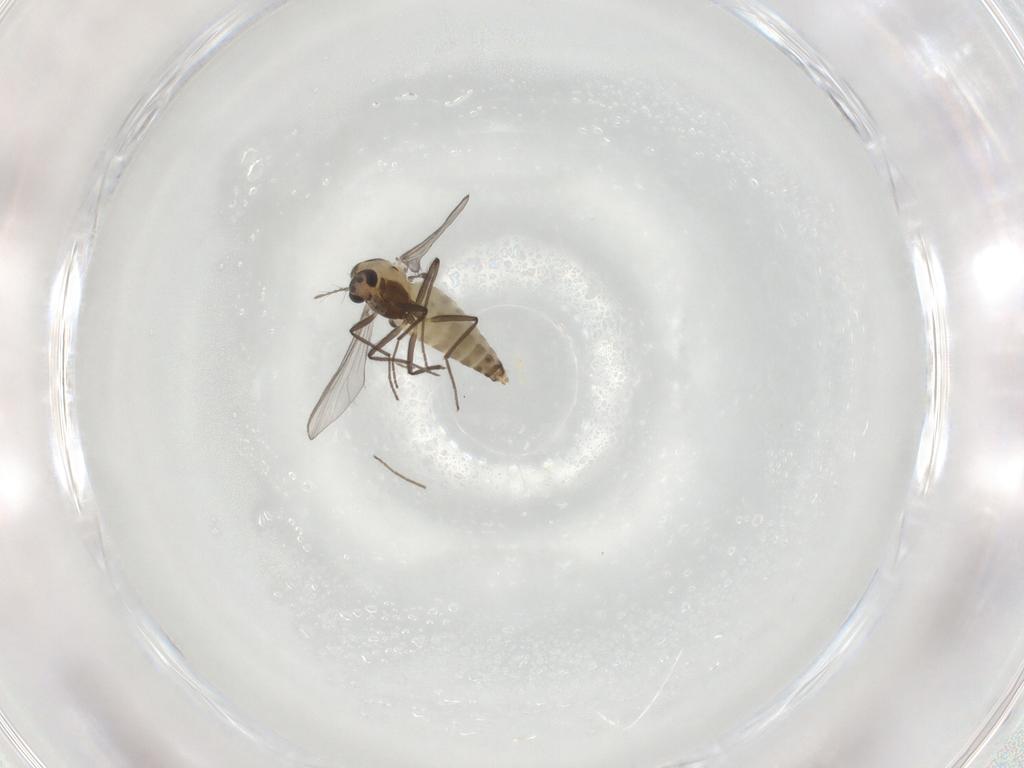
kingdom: Animalia
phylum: Arthropoda
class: Insecta
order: Diptera
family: Chironomidae
